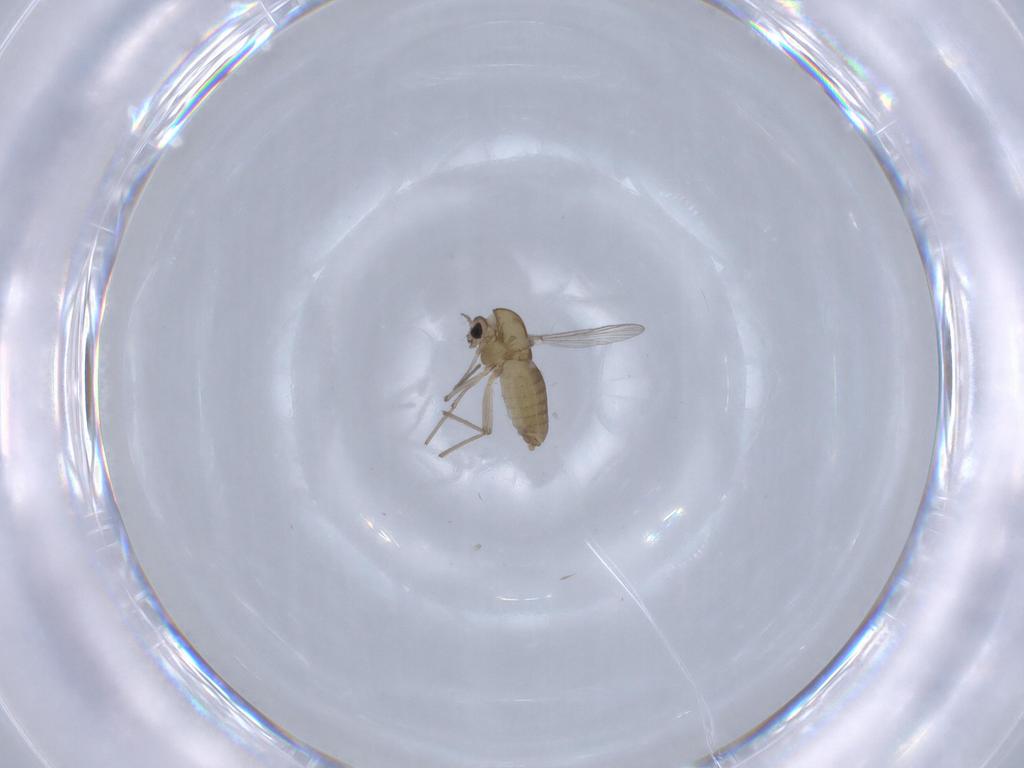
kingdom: Animalia
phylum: Arthropoda
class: Insecta
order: Diptera
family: Chironomidae
